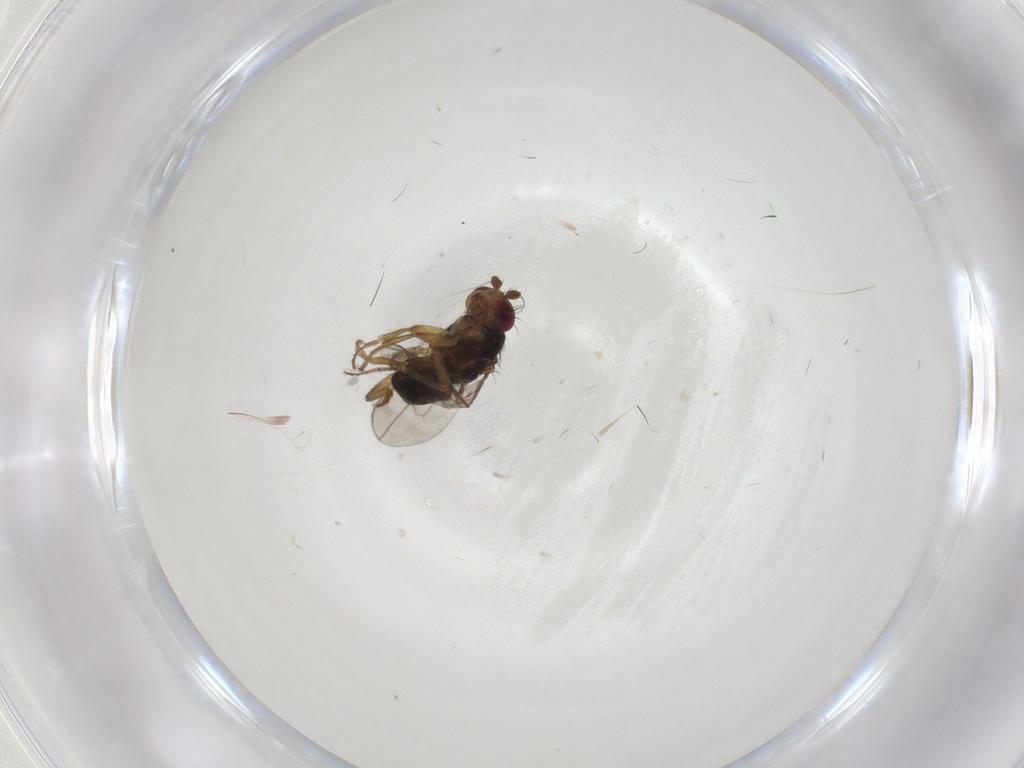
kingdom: Animalia
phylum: Arthropoda
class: Insecta
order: Diptera
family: Sphaeroceridae
